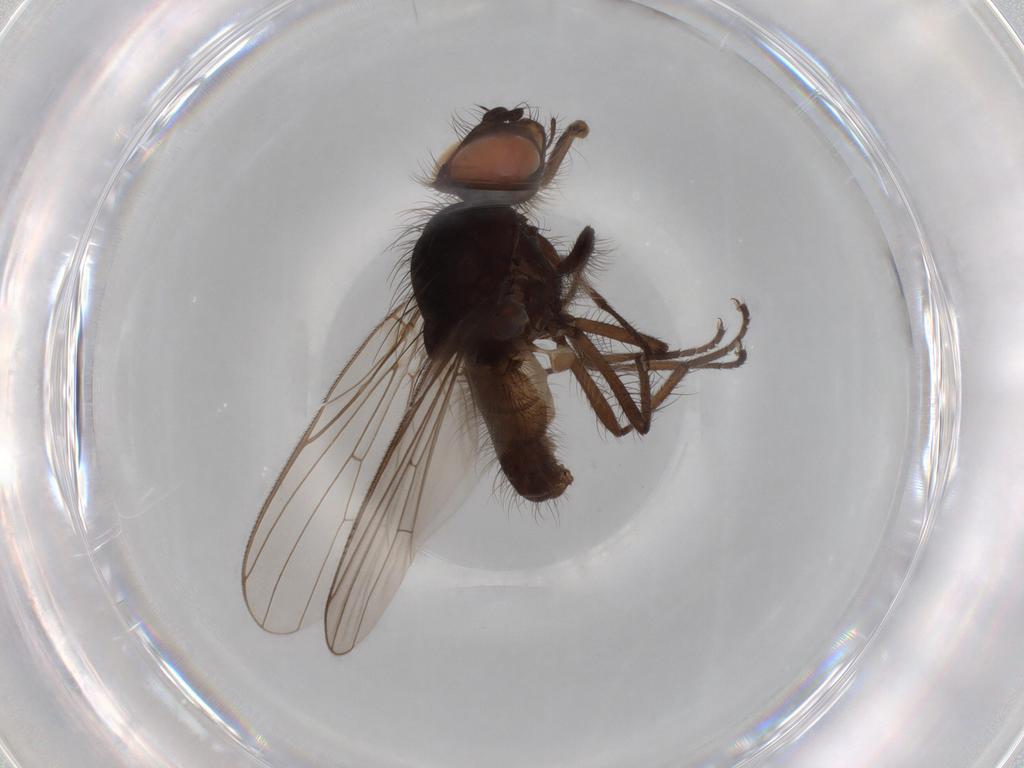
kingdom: Animalia
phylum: Arthropoda
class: Insecta
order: Diptera
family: Anthomyiidae
